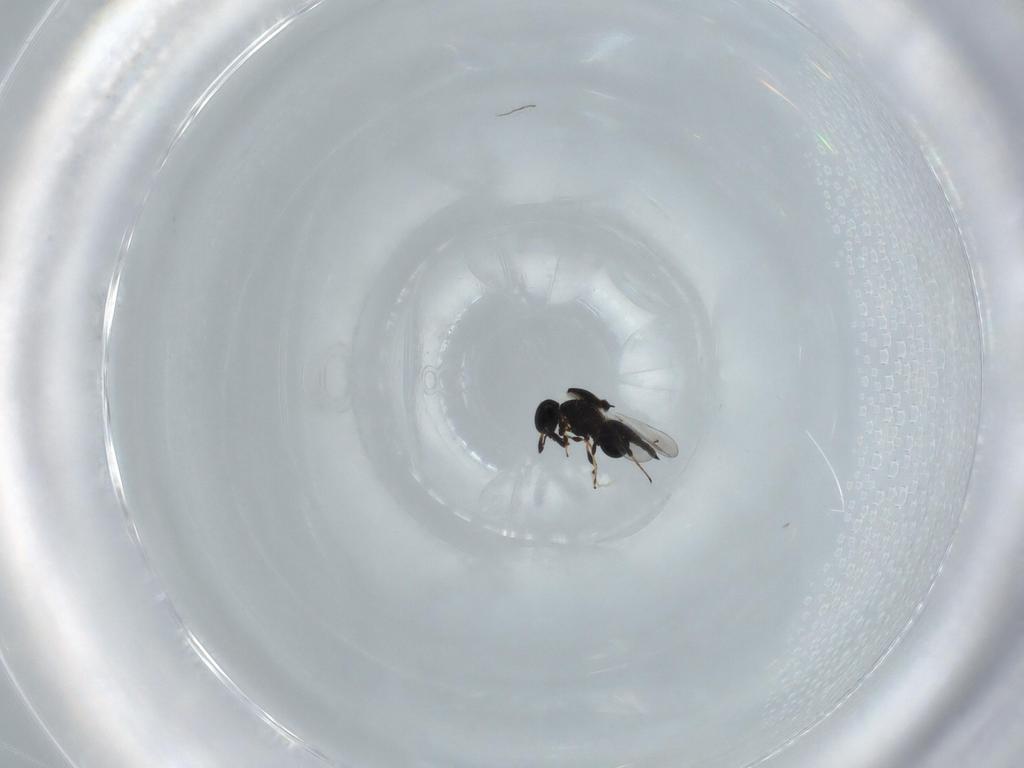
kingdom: Animalia
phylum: Arthropoda
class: Insecta
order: Hymenoptera
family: Platygastridae
